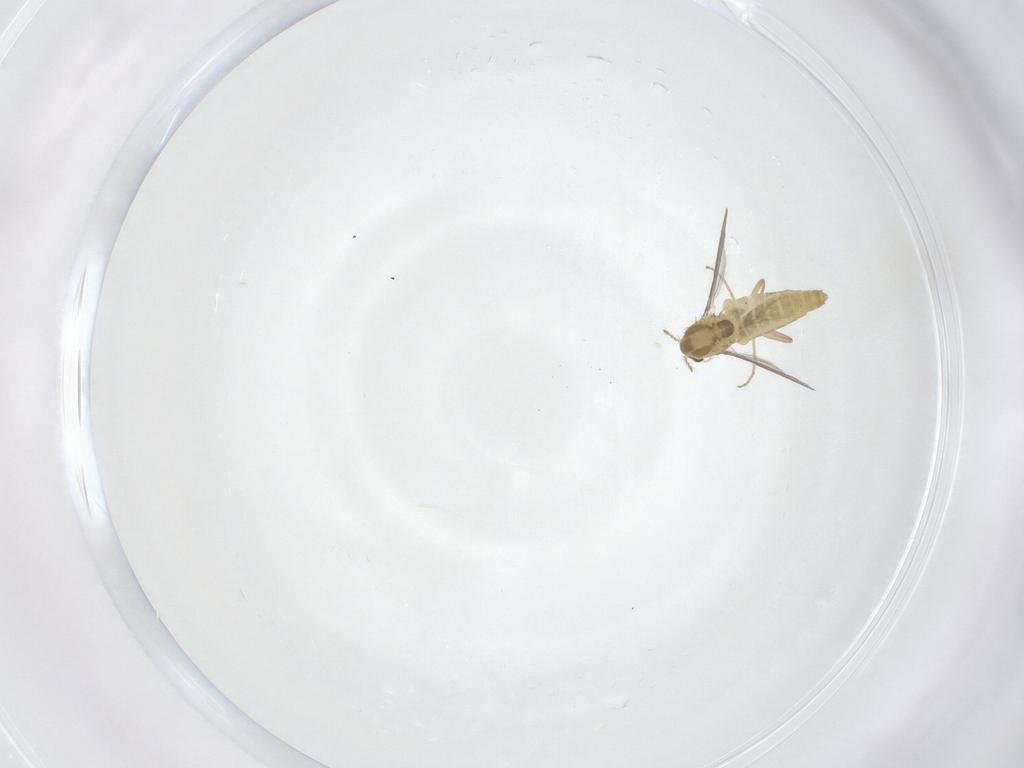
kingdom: Animalia
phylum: Arthropoda
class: Insecta
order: Diptera
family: Chironomidae
